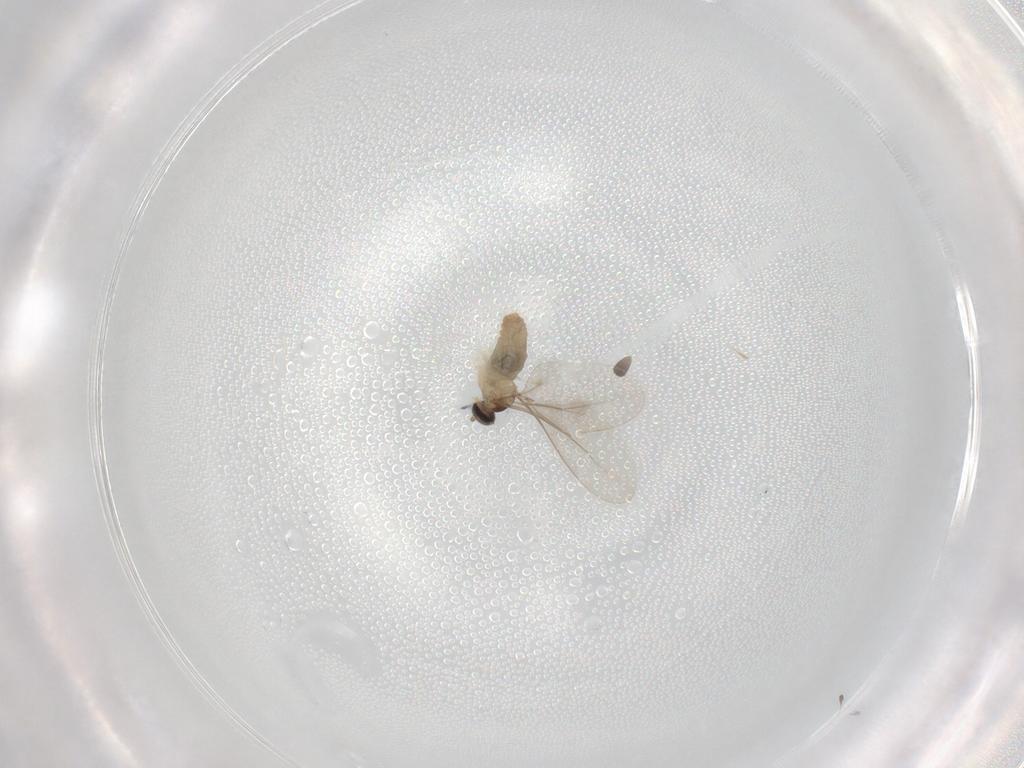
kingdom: Animalia
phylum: Arthropoda
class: Insecta
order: Diptera
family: Cecidomyiidae
